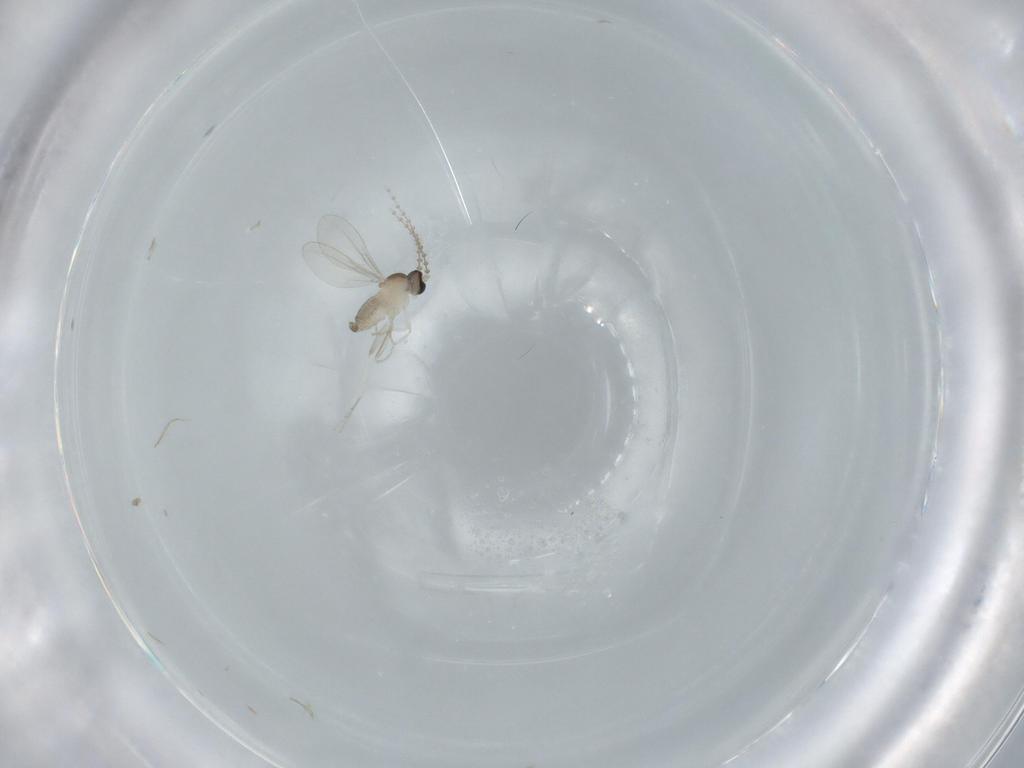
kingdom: Animalia
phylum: Arthropoda
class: Insecta
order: Diptera
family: Cecidomyiidae
